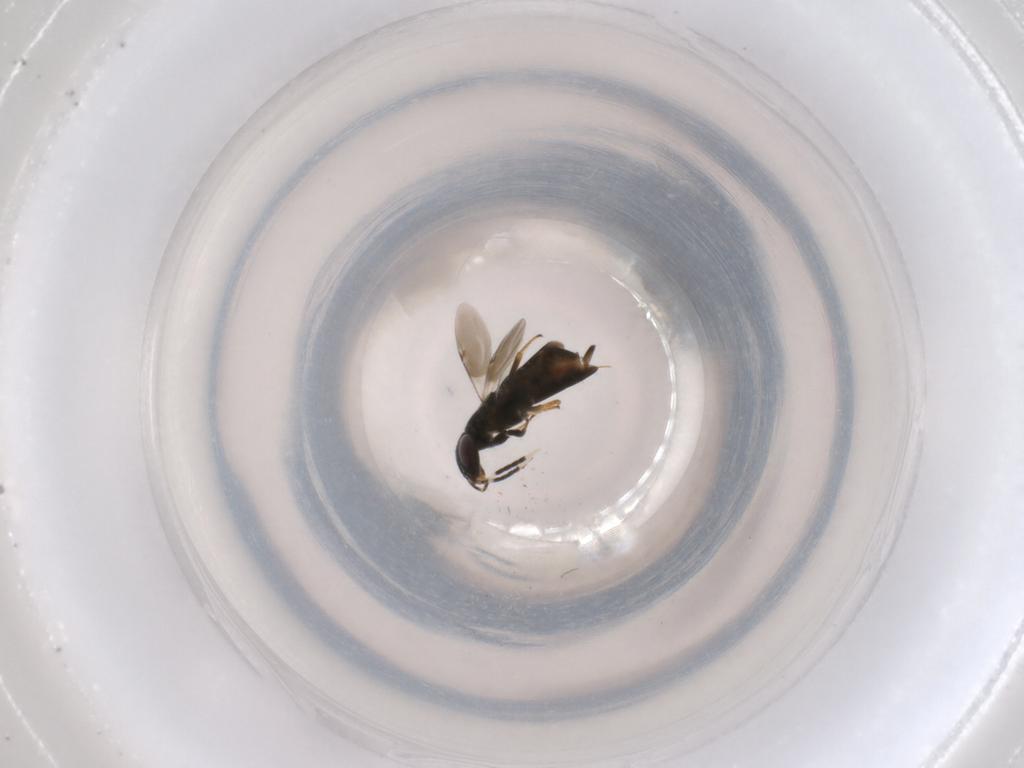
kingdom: Animalia
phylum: Arthropoda
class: Insecta
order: Hymenoptera
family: Encyrtidae
